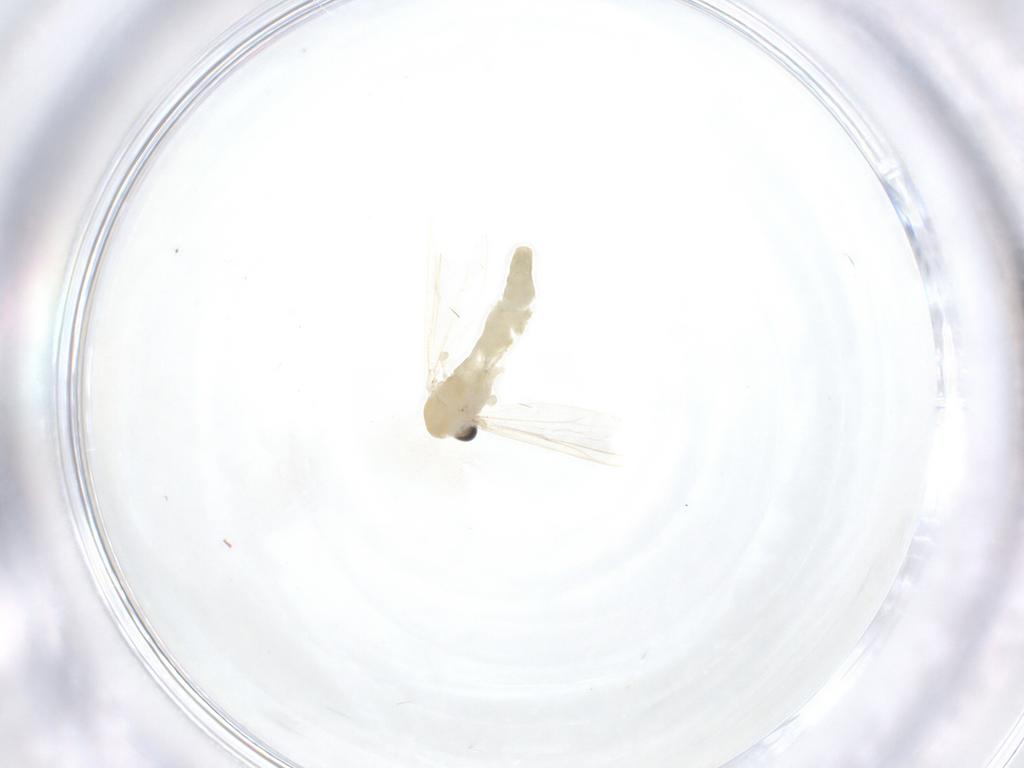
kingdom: Animalia
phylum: Arthropoda
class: Insecta
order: Diptera
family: Chironomidae
